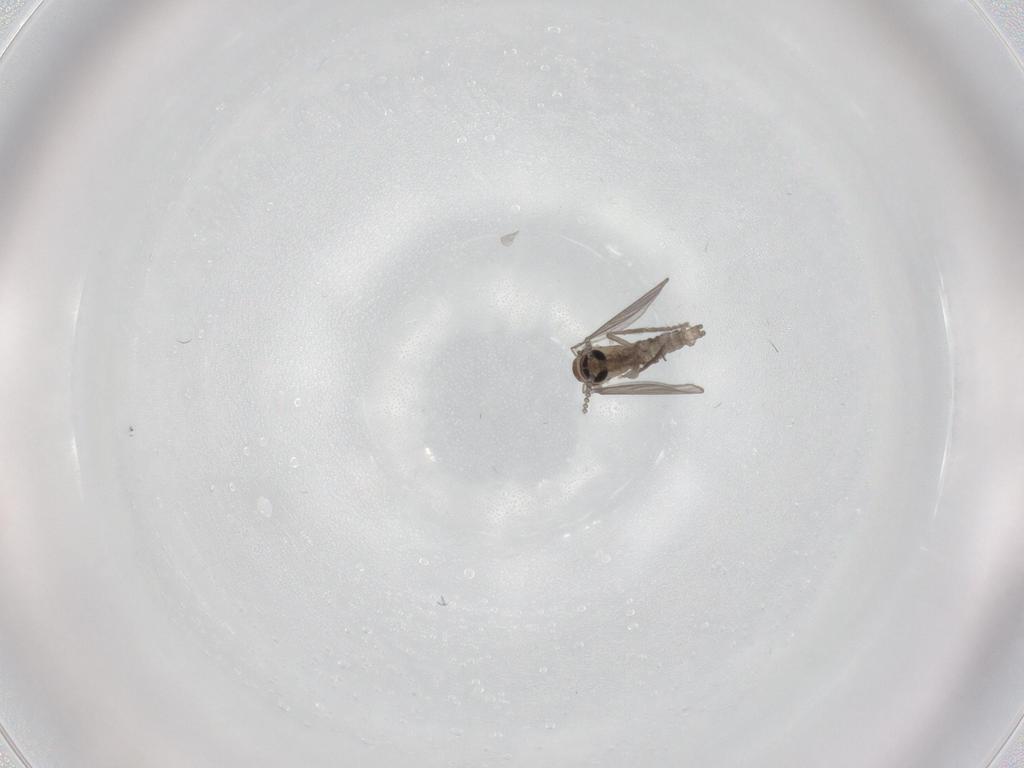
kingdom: Animalia
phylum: Arthropoda
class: Insecta
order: Diptera
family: Psychodidae
